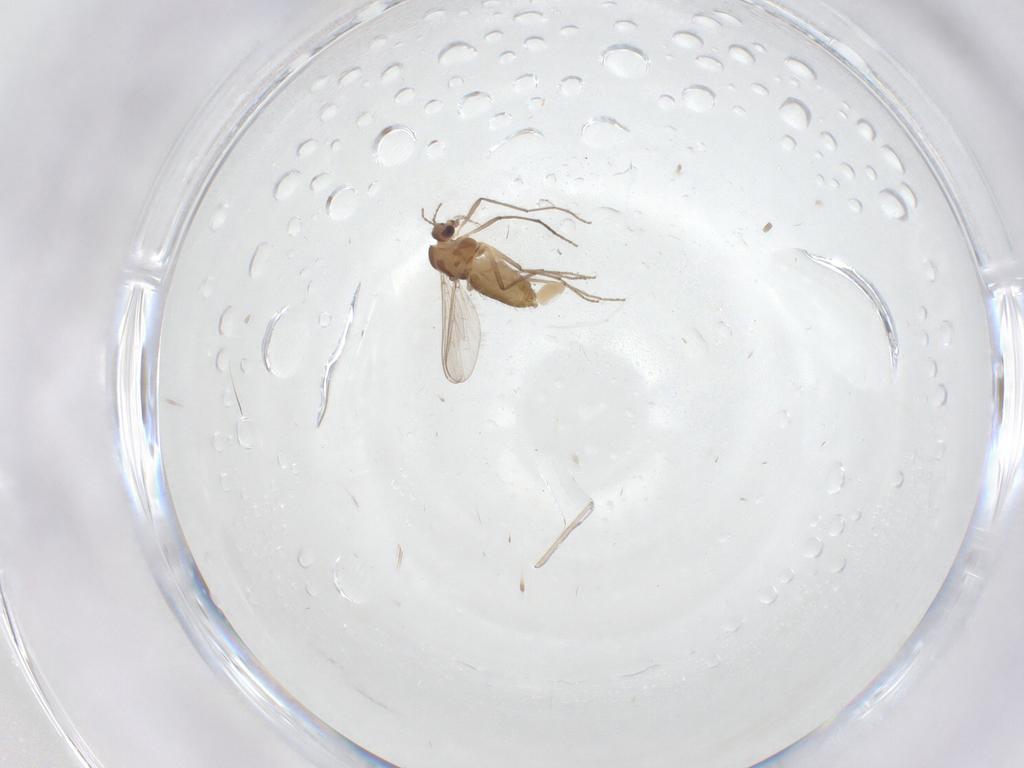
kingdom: Animalia
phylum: Arthropoda
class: Insecta
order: Diptera
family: Chironomidae
